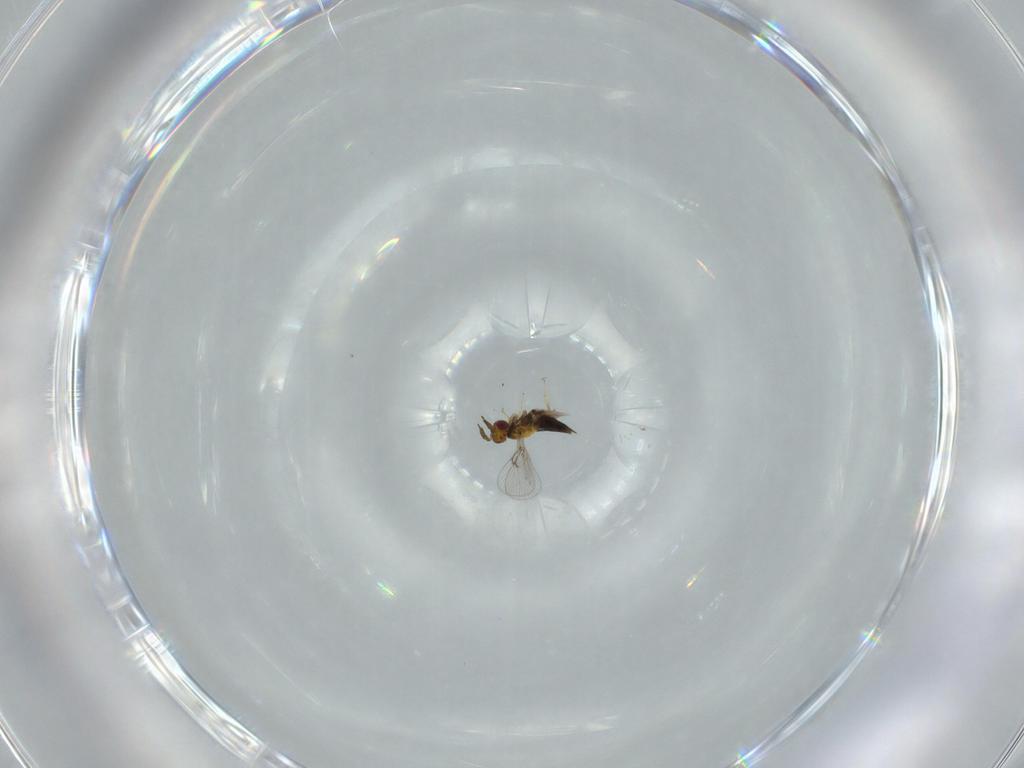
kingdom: Animalia
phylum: Arthropoda
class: Insecta
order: Hymenoptera
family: Trichogrammatidae
